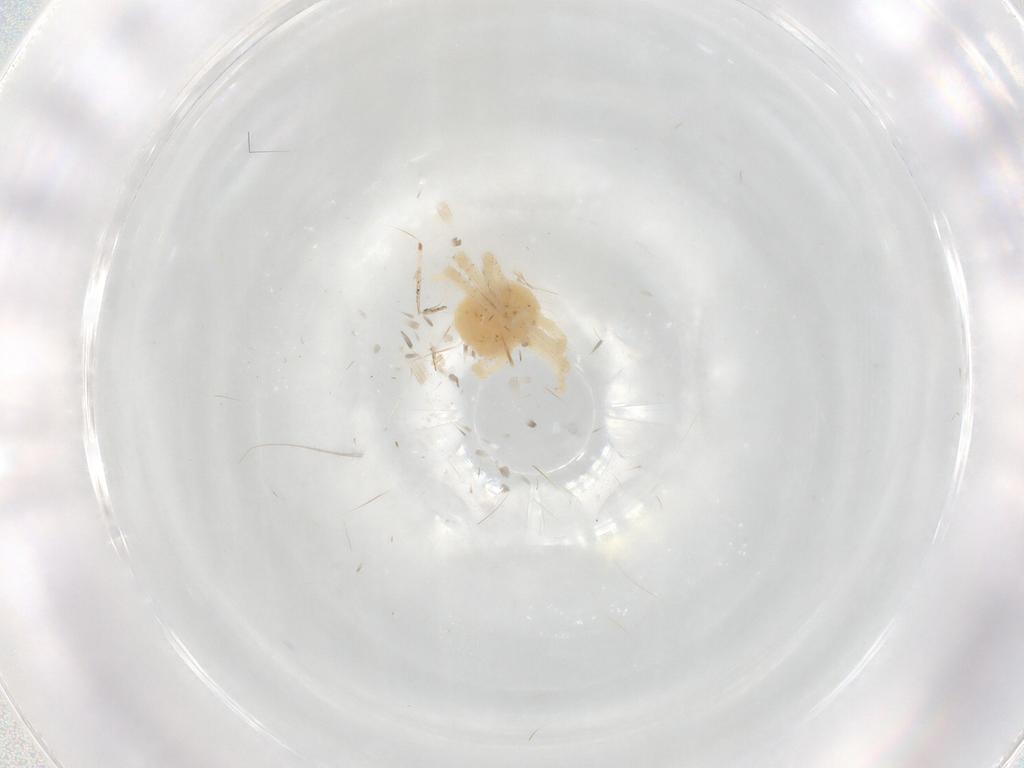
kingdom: Animalia
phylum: Arthropoda
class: Arachnida
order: Trombidiformes
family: Anystidae
